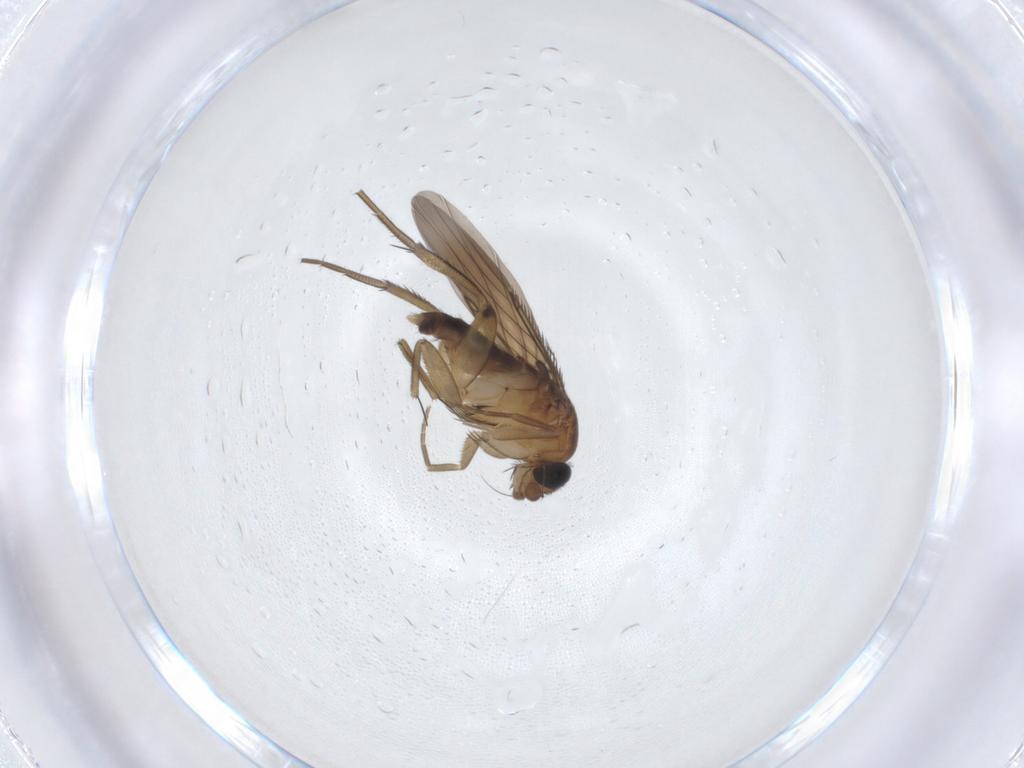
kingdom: Animalia
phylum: Arthropoda
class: Insecta
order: Diptera
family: Phoridae
